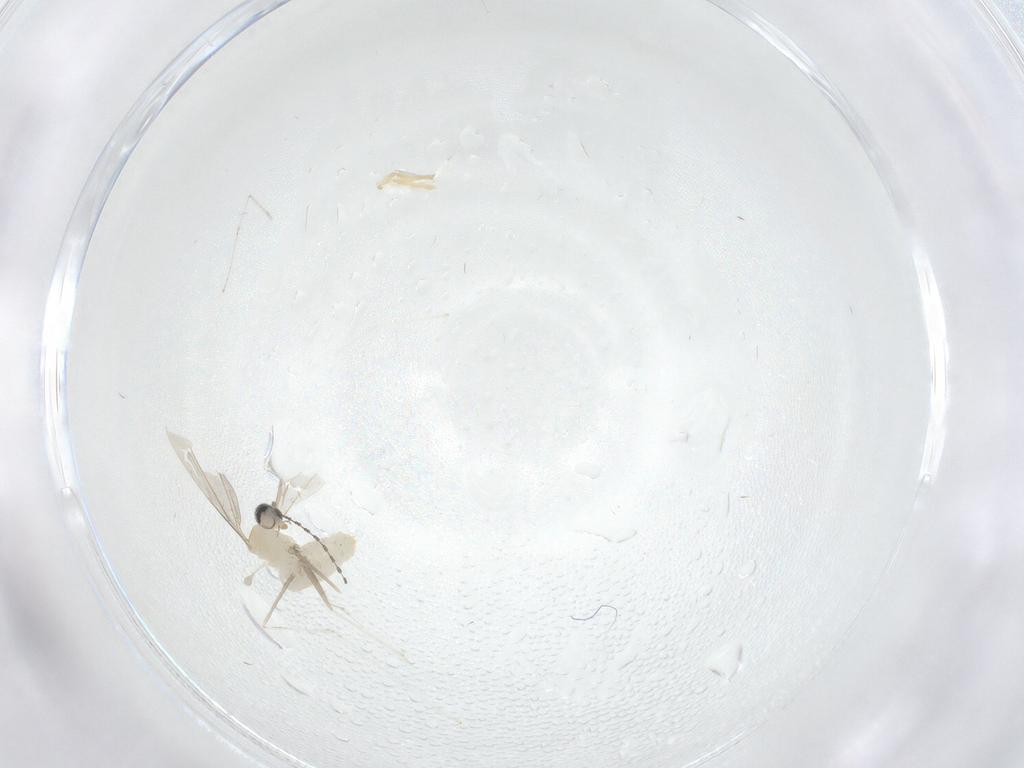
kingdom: Animalia
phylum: Arthropoda
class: Insecta
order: Diptera
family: Cecidomyiidae
